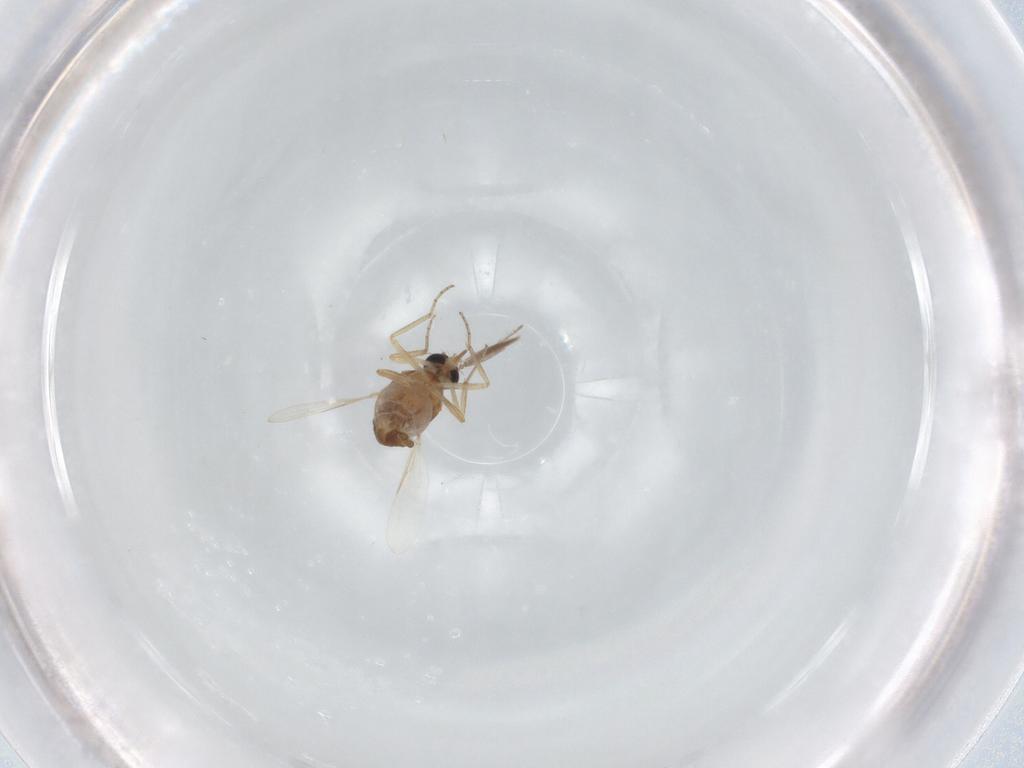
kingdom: Animalia
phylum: Arthropoda
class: Insecta
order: Diptera
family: Ceratopogonidae
